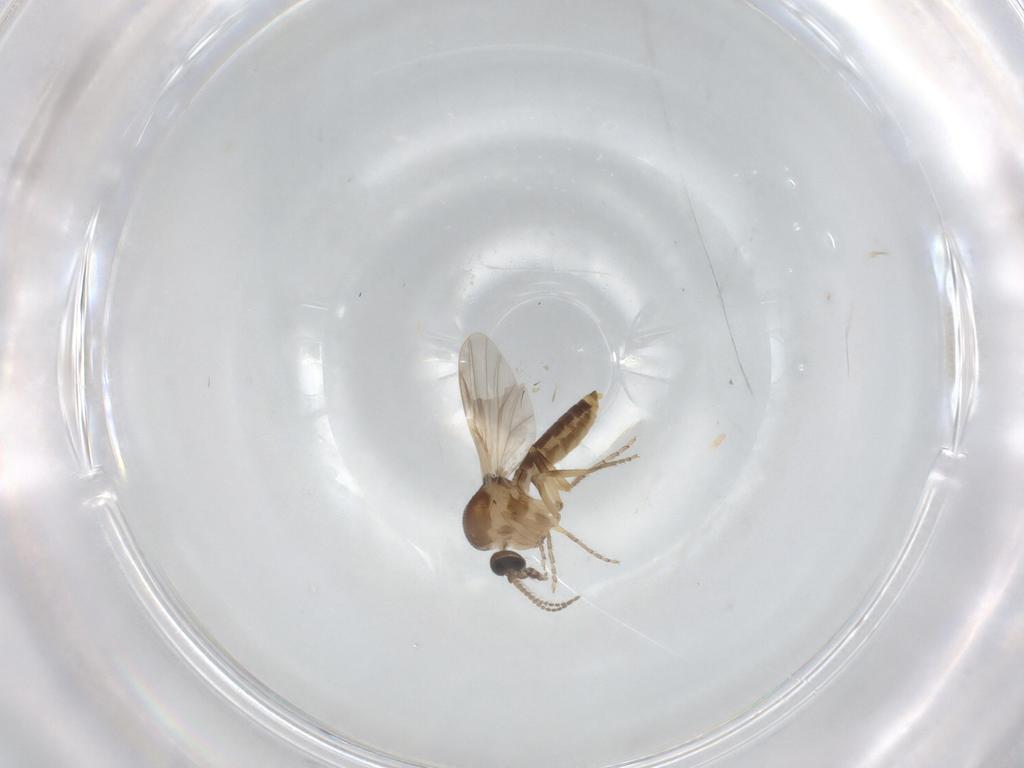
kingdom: Animalia
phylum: Arthropoda
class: Insecta
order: Diptera
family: Ceratopogonidae
